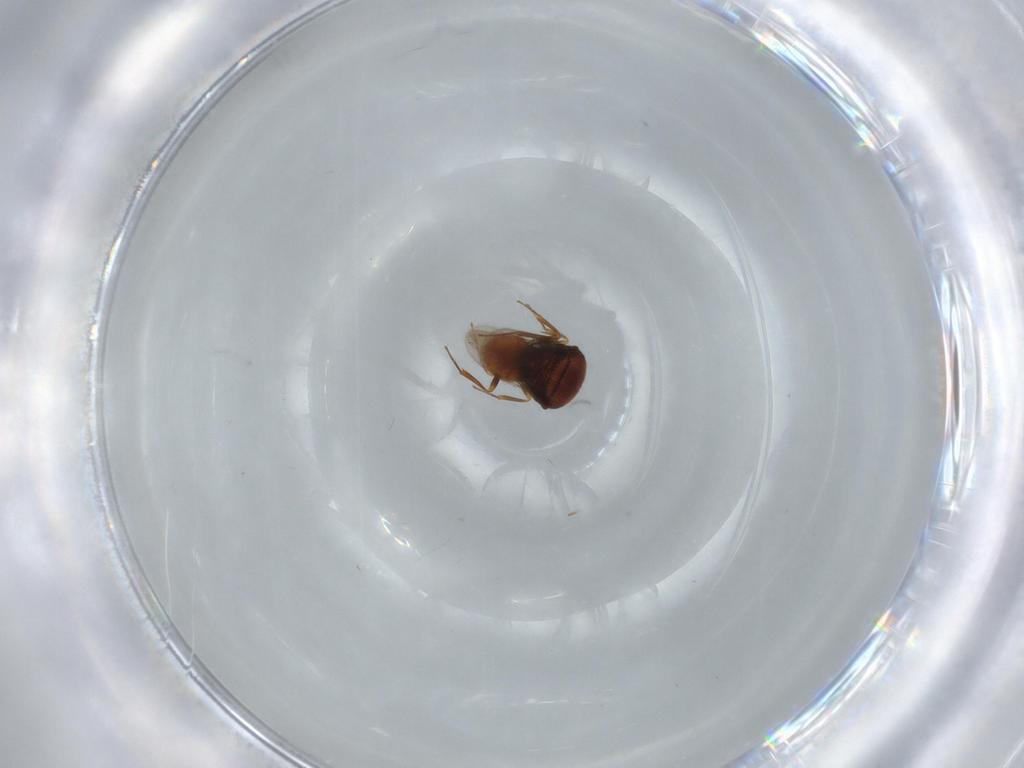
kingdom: Animalia
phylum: Arthropoda
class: Insecta
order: Hymenoptera
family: Scelionidae
